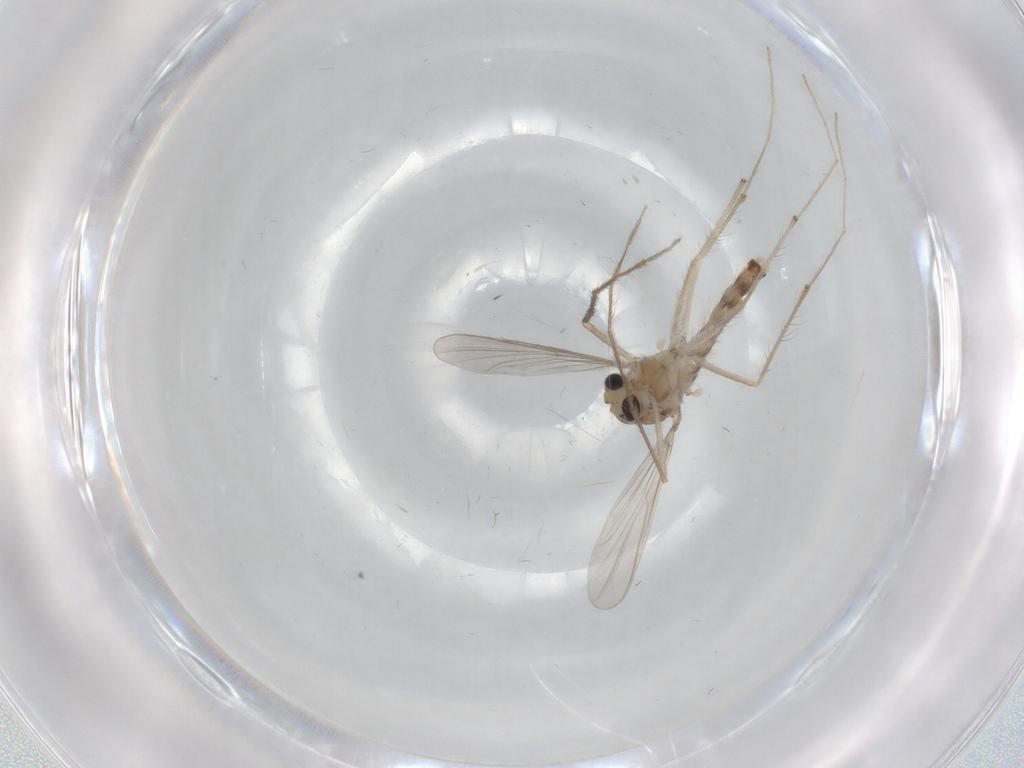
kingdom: Animalia
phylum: Arthropoda
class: Insecta
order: Diptera
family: Chironomidae
